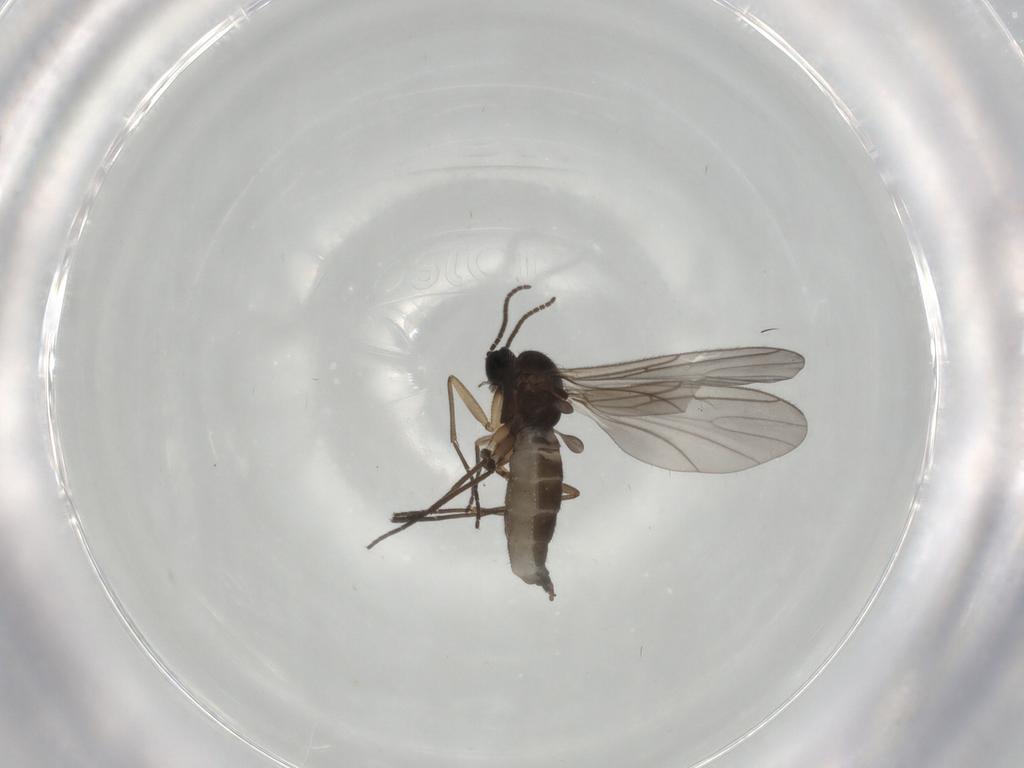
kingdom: Animalia
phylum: Arthropoda
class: Insecta
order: Diptera
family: Sciaridae
